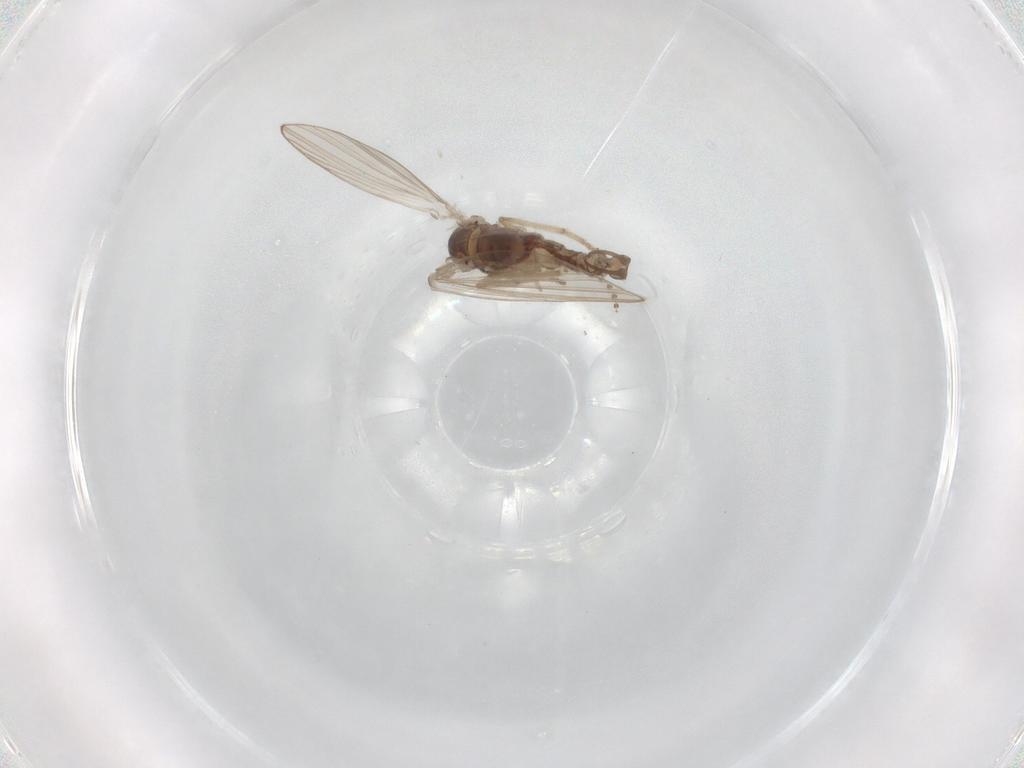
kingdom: Animalia
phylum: Arthropoda
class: Insecta
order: Diptera
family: Psychodidae
